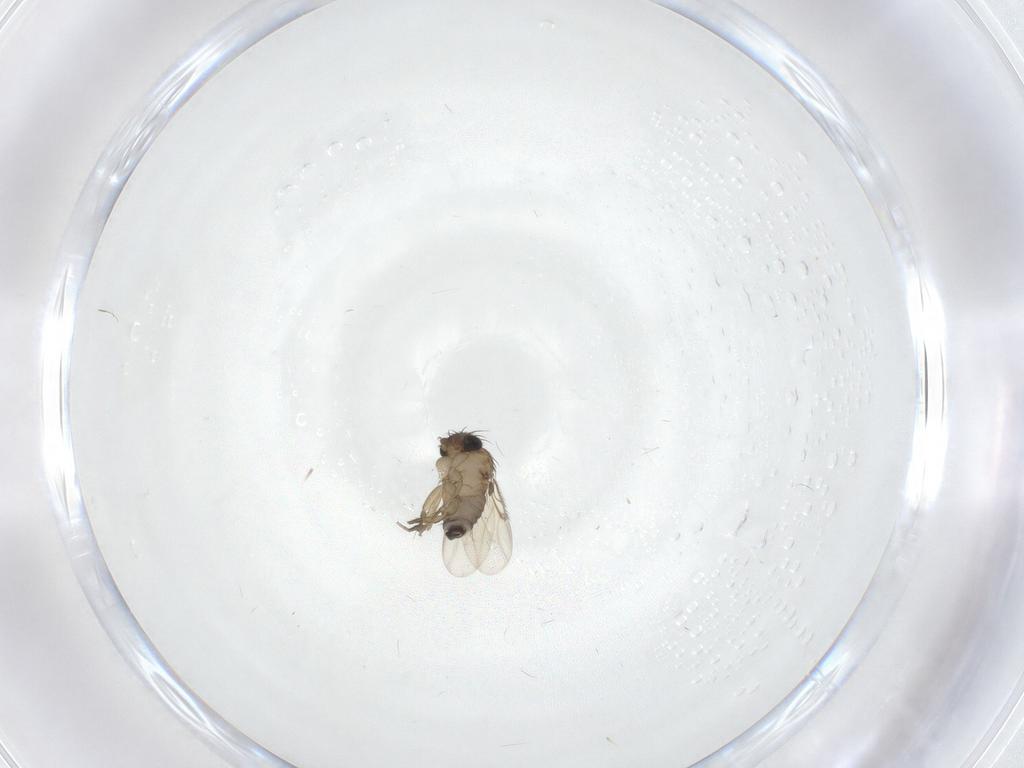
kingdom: Animalia
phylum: Arthropoda
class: Insecta
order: Diptera
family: Phoridae
